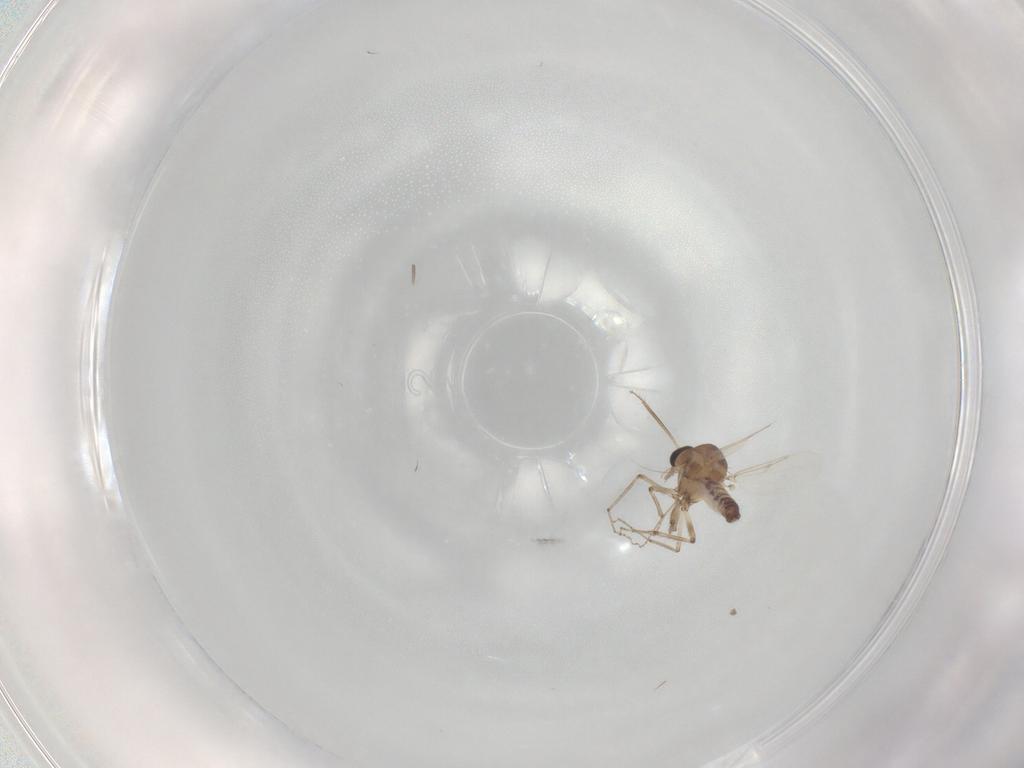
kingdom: Animalia
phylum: Arthropoda
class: Insecta
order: Diptera
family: Ceratopogonidae
